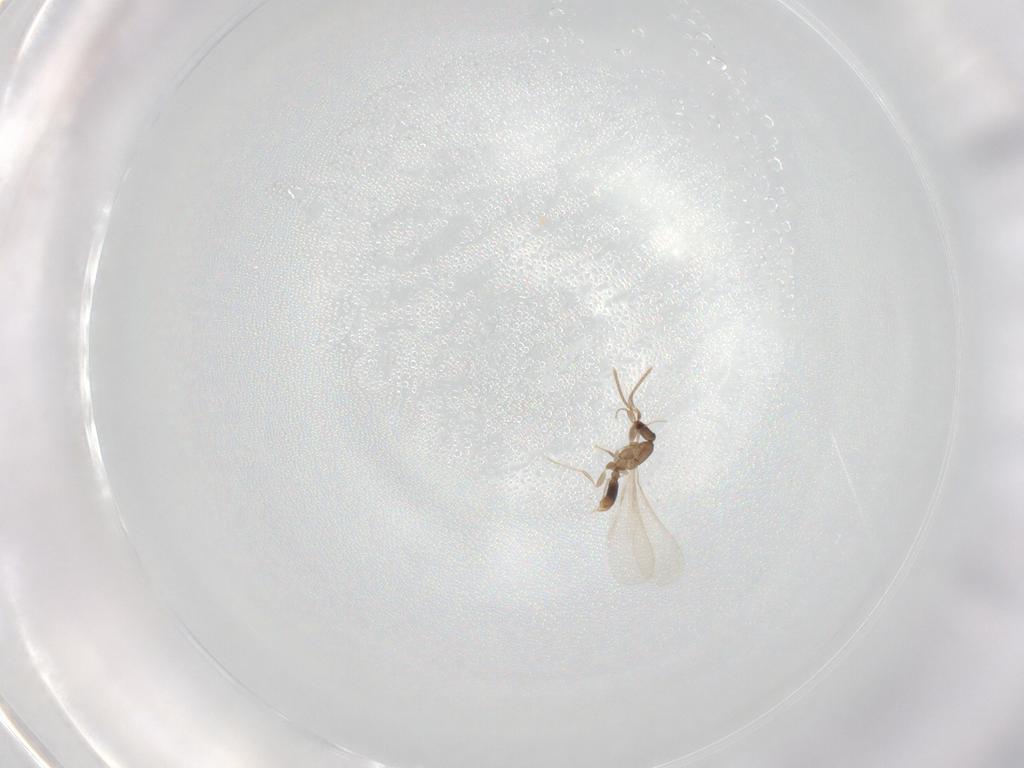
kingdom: Animalia
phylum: Arthropoda
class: Insecta
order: Hymenoptera
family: Formicidae
